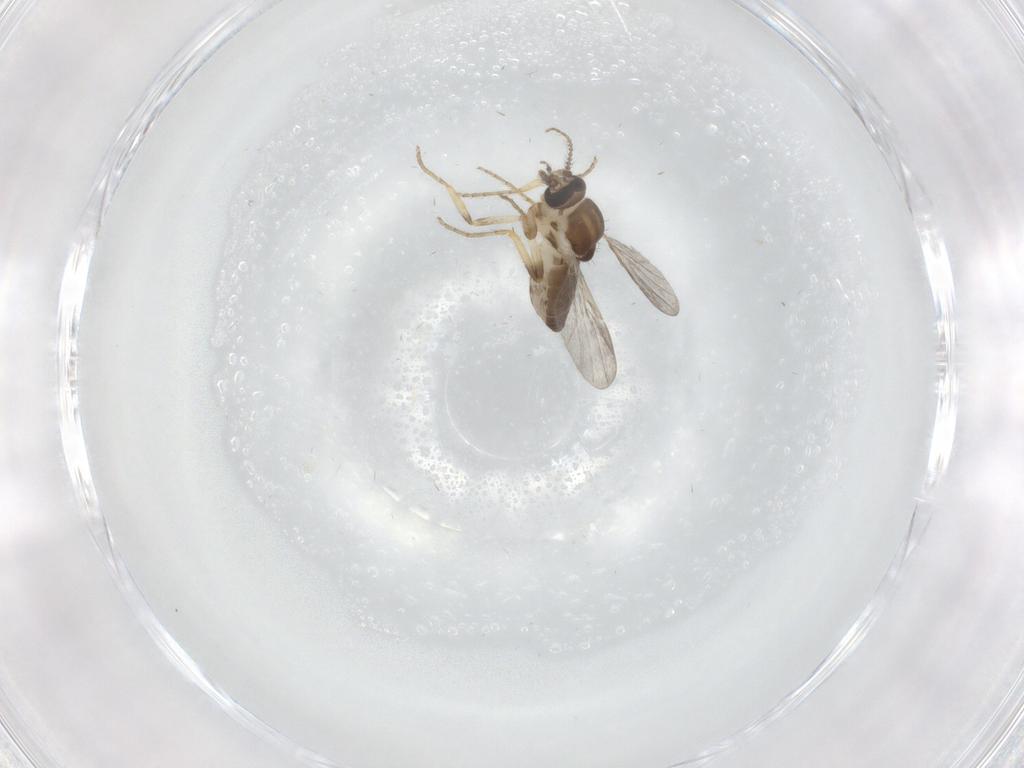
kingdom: Animalia
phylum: Arthropoda
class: Insecta
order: Diptera
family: Ceratopogonidae
